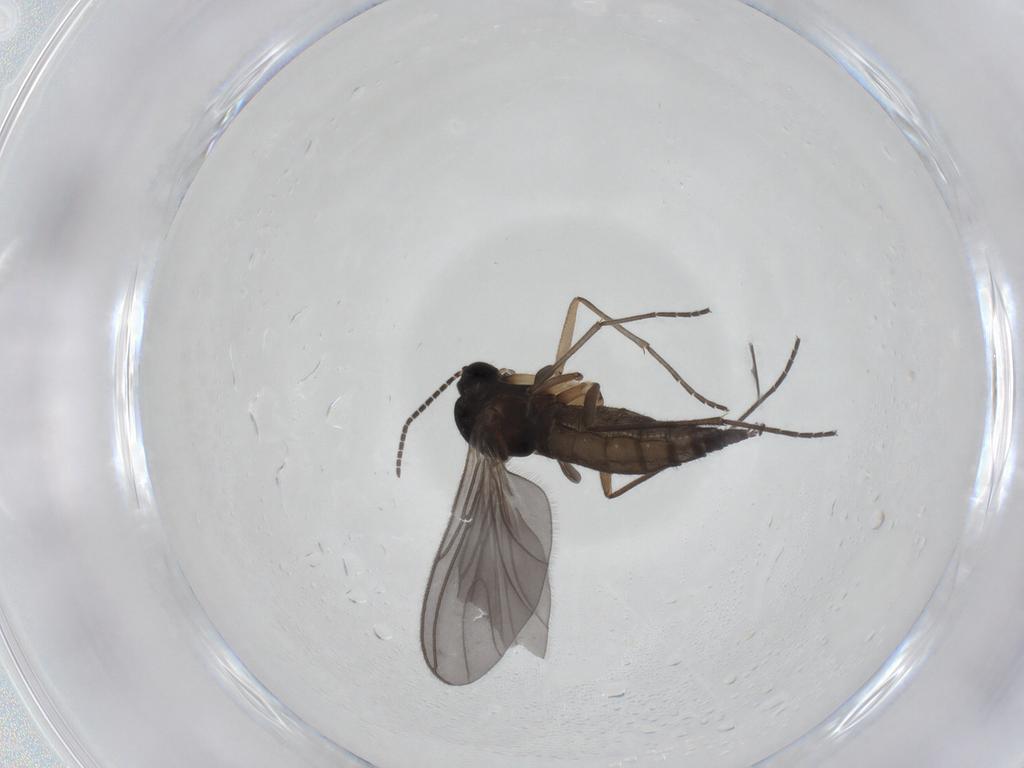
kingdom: Animalia
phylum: Arthropoda
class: Insecta
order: Diptera
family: Sciaridae
